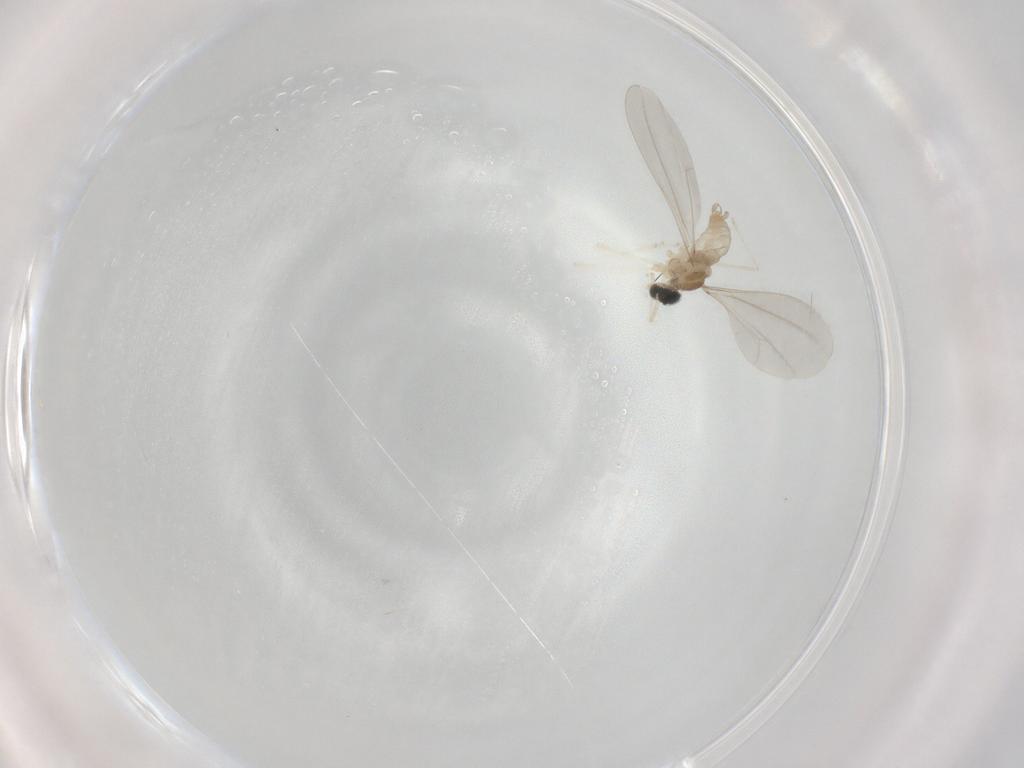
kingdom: Animalia
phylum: Arthropoda
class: Insecta
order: Diptera
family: Cecidomyiidae
